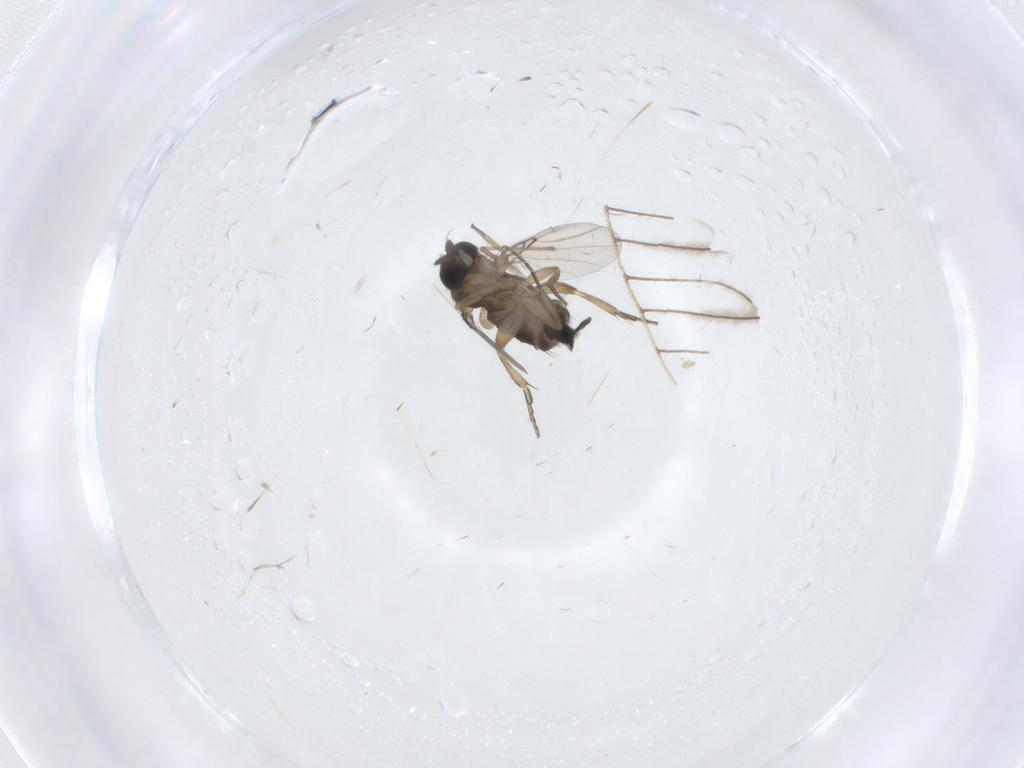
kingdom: Animalia
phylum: Arthropoda
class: Insecta
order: Diptera
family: Phoridae
